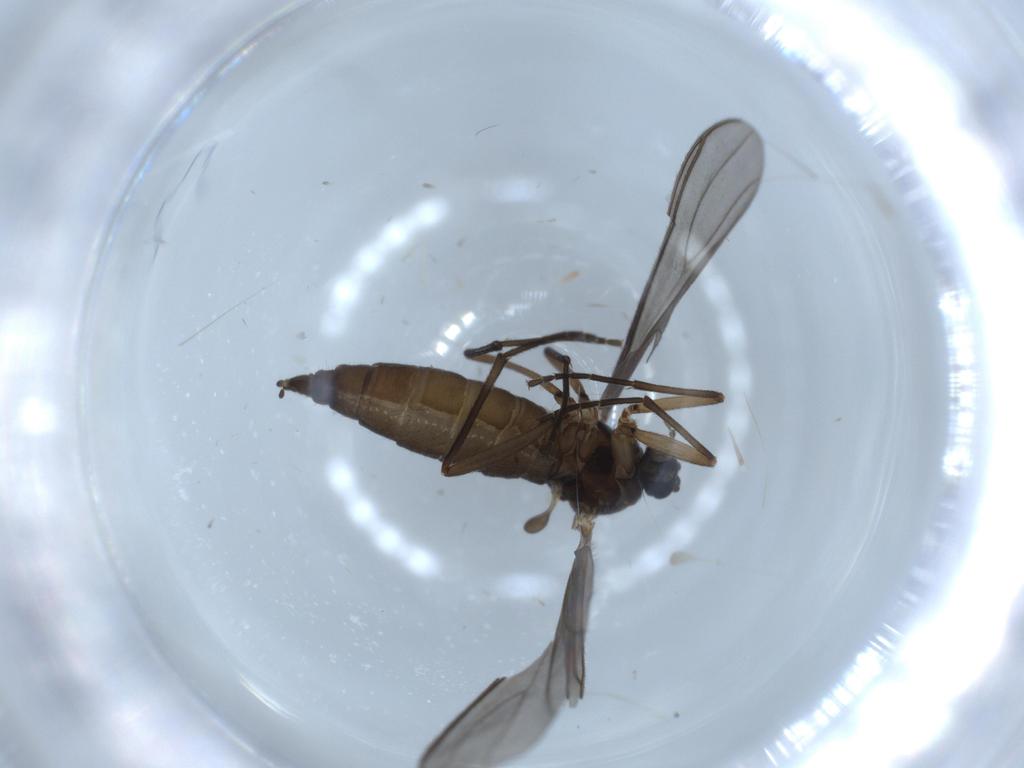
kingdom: Animalia
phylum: Arthropoda
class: Insecta
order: Diptera
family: Sciaridae
